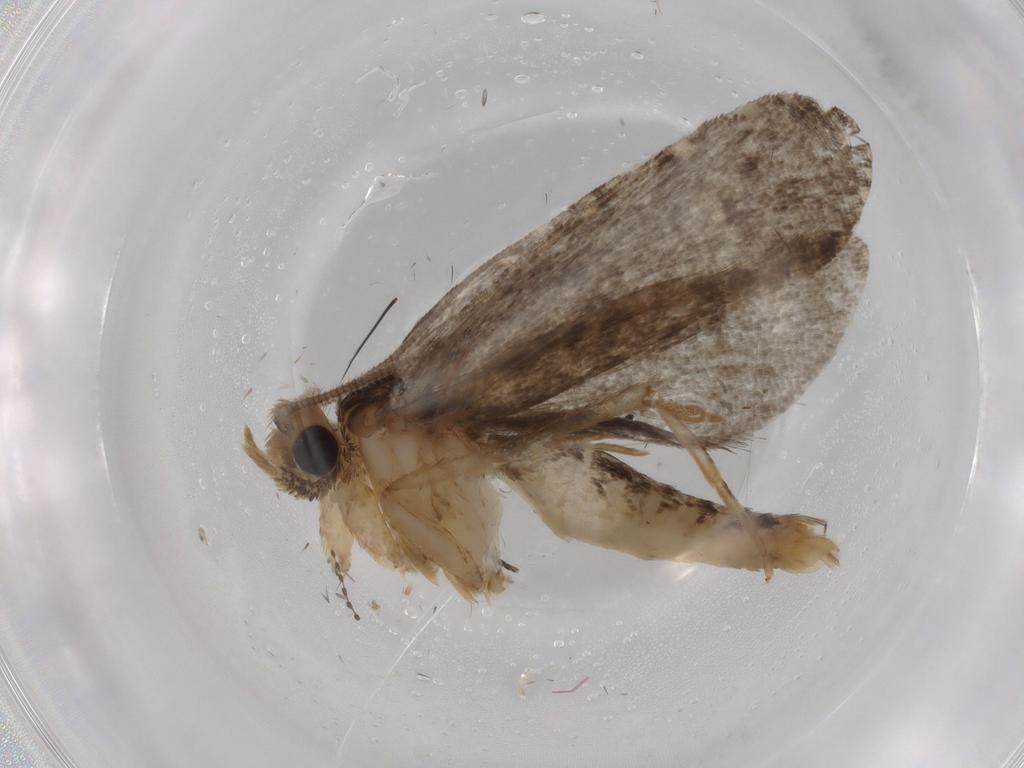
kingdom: Animalia
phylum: Arthropoda
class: Insecta
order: Lepidoptera
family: Tineidae
